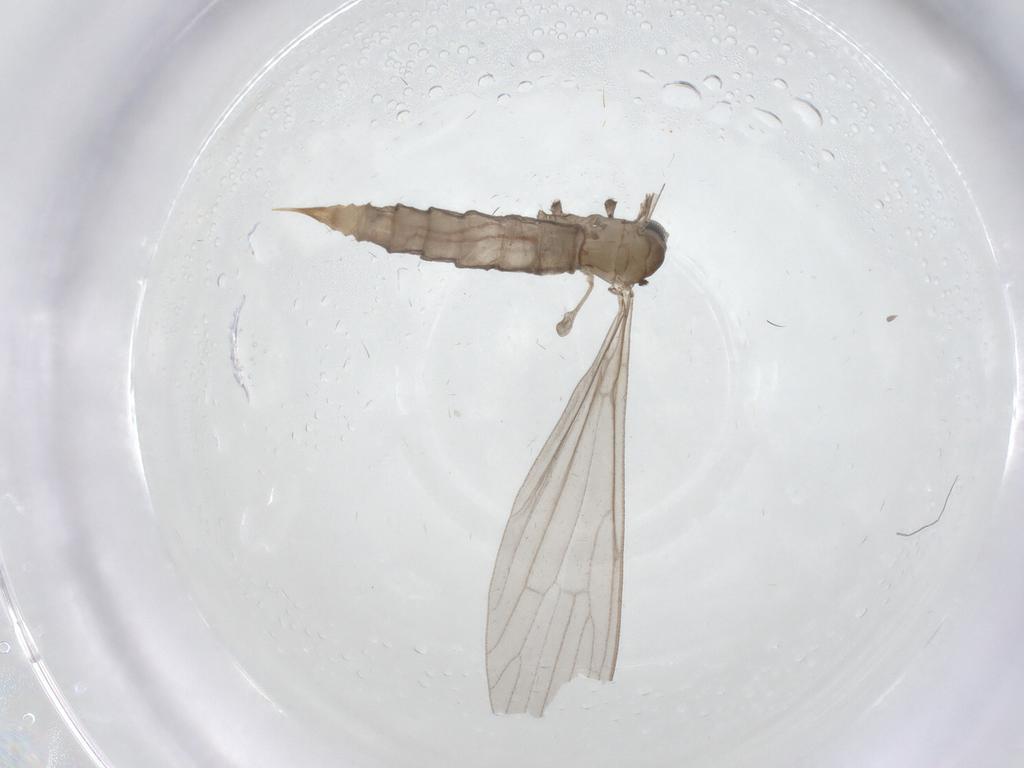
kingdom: Animalia
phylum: Arthropoda
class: Insecta
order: Diptera
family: Limoniidae
